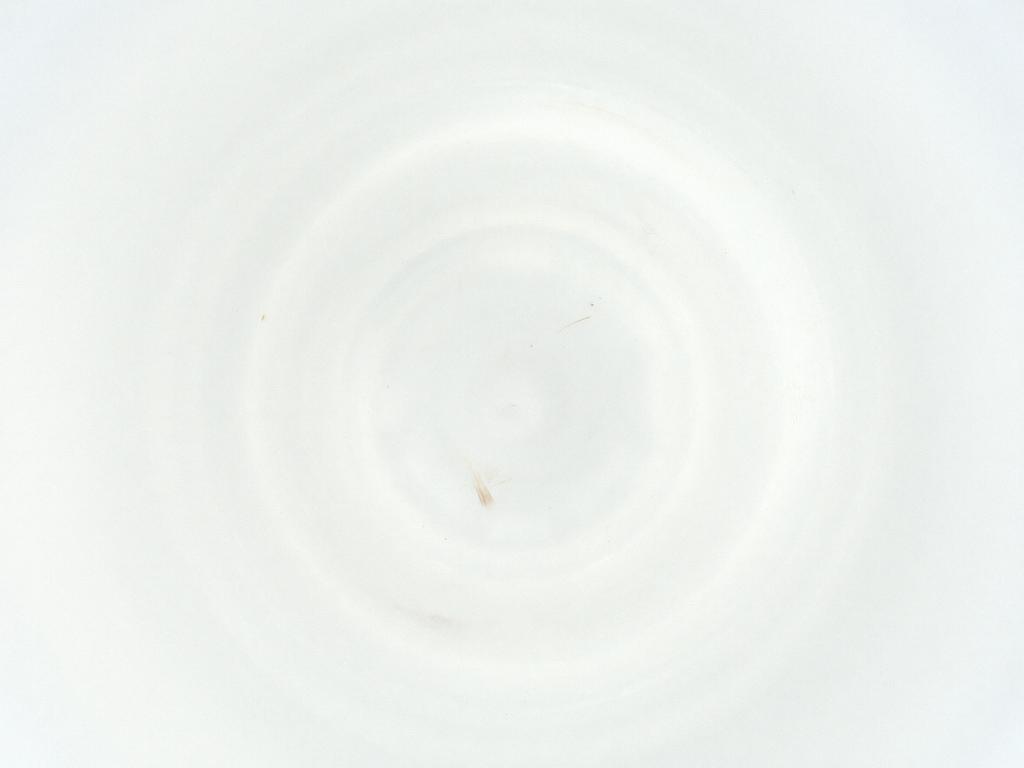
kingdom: Animalia
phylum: Arthropoda
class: Collembola
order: Symphypleona
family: Bourletiellidae
